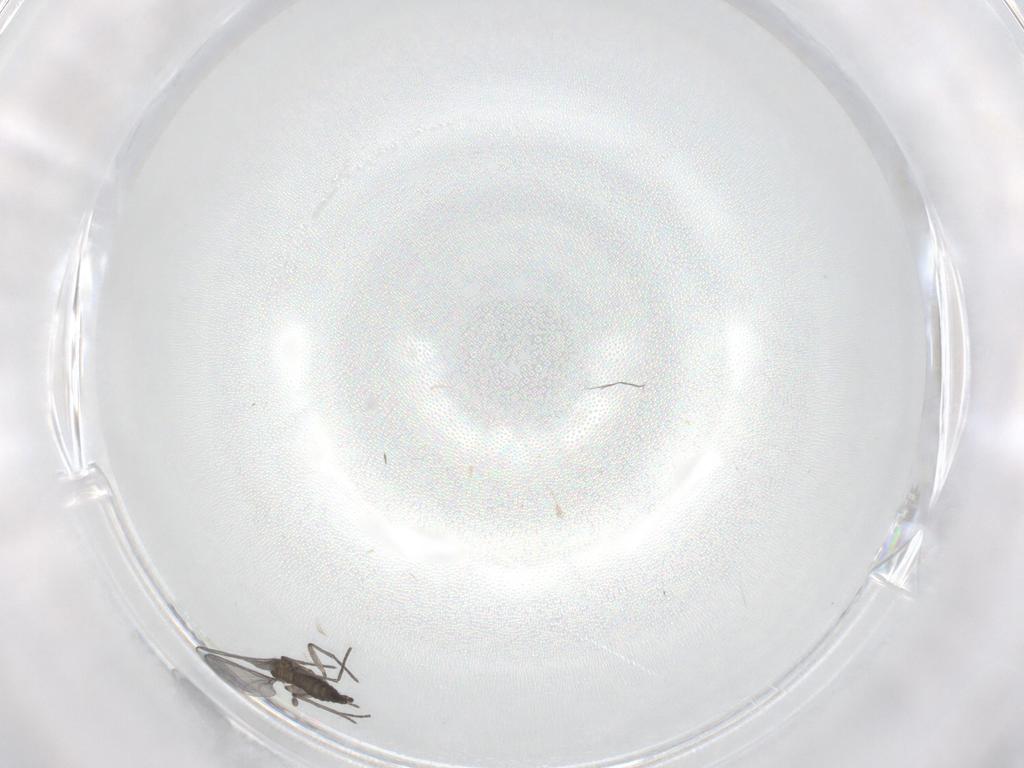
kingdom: Animalia
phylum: Arthropoda
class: Insecta
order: Diptera
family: Sciaridae
